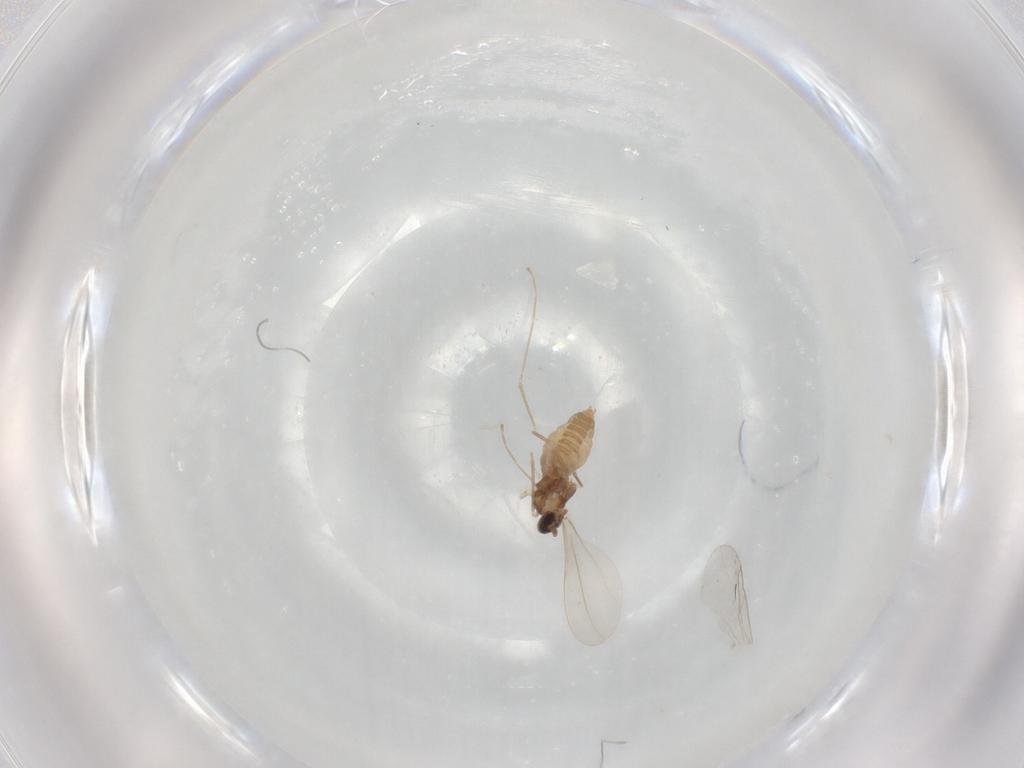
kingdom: Animalia
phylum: Arthropoda
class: Insecta
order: Diptera
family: Cecidomyiidae
